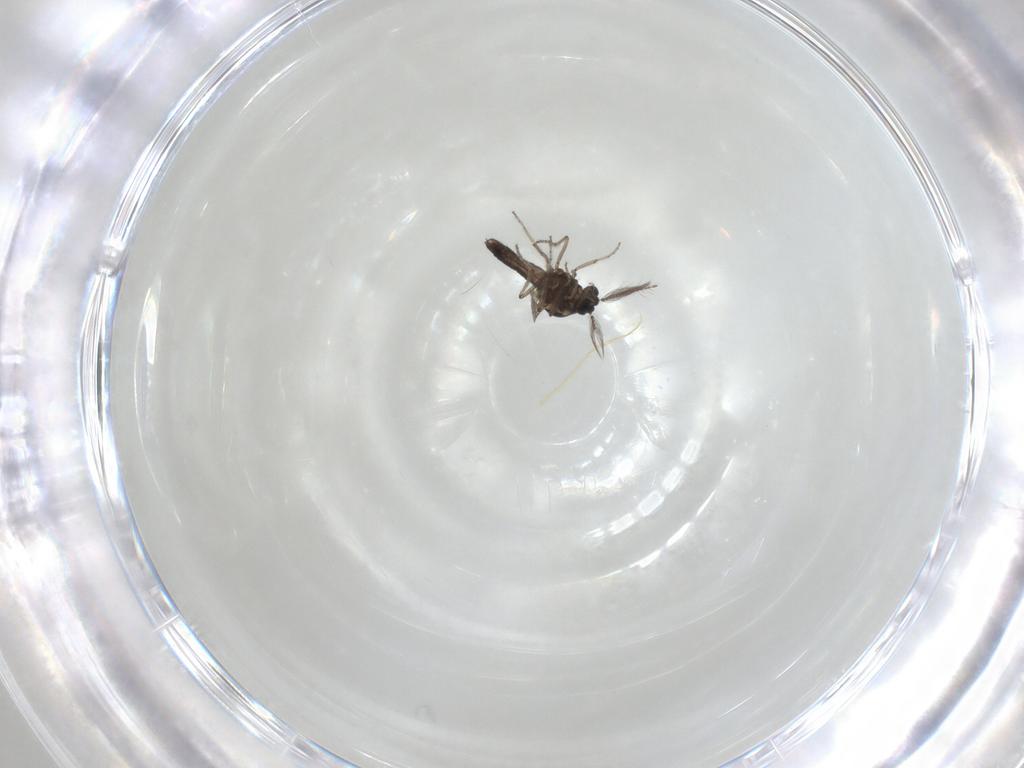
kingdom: Animalia
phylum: Arthropoda
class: Insecta
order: Diptera
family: Ceratopogonidae
